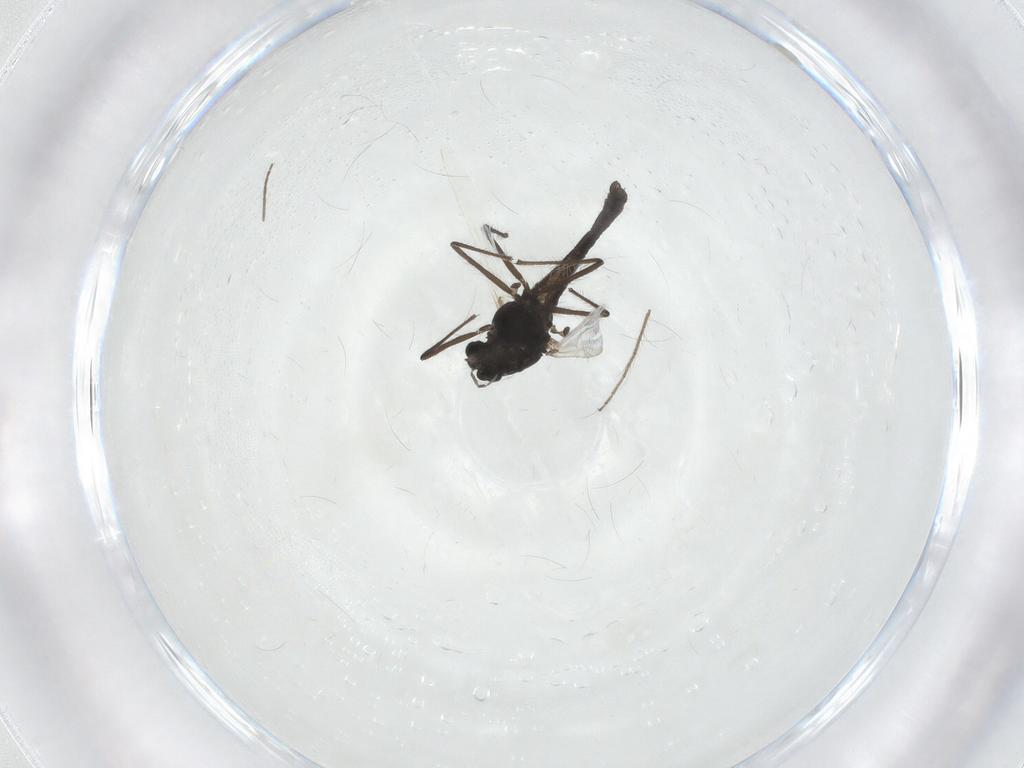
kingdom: Animalia
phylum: Arthropoda
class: Insecta
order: Diptera
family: Chironomidae
